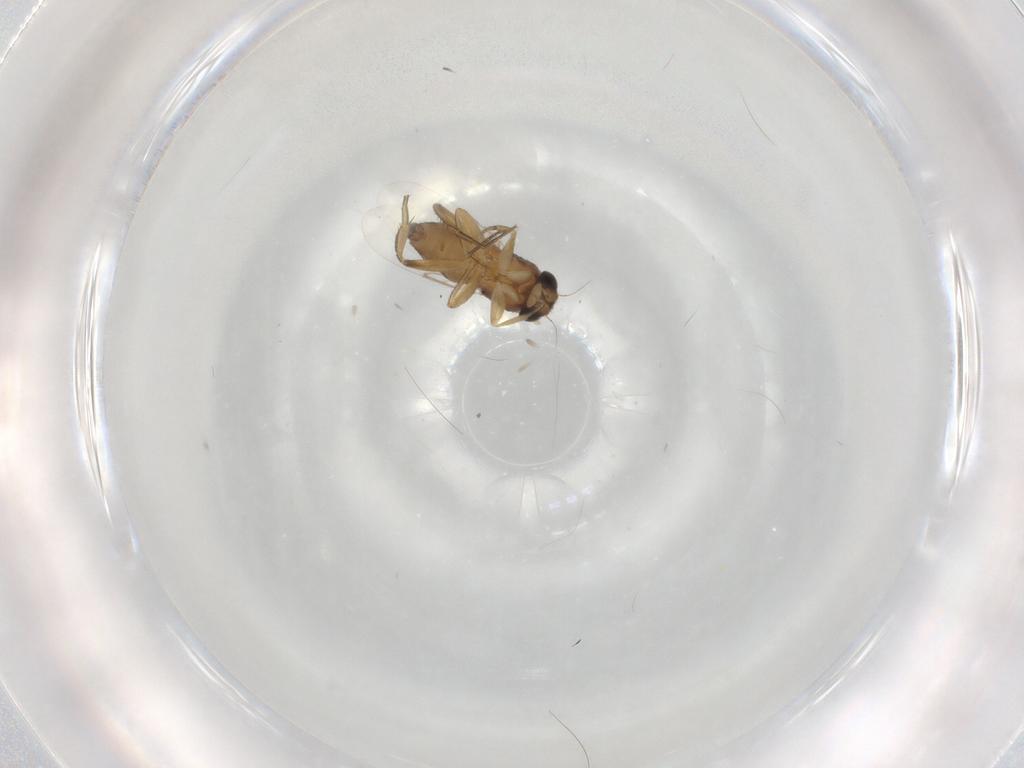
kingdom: Animalia
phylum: Arthropoda
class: Insecta
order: Diptera
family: Phoridae
